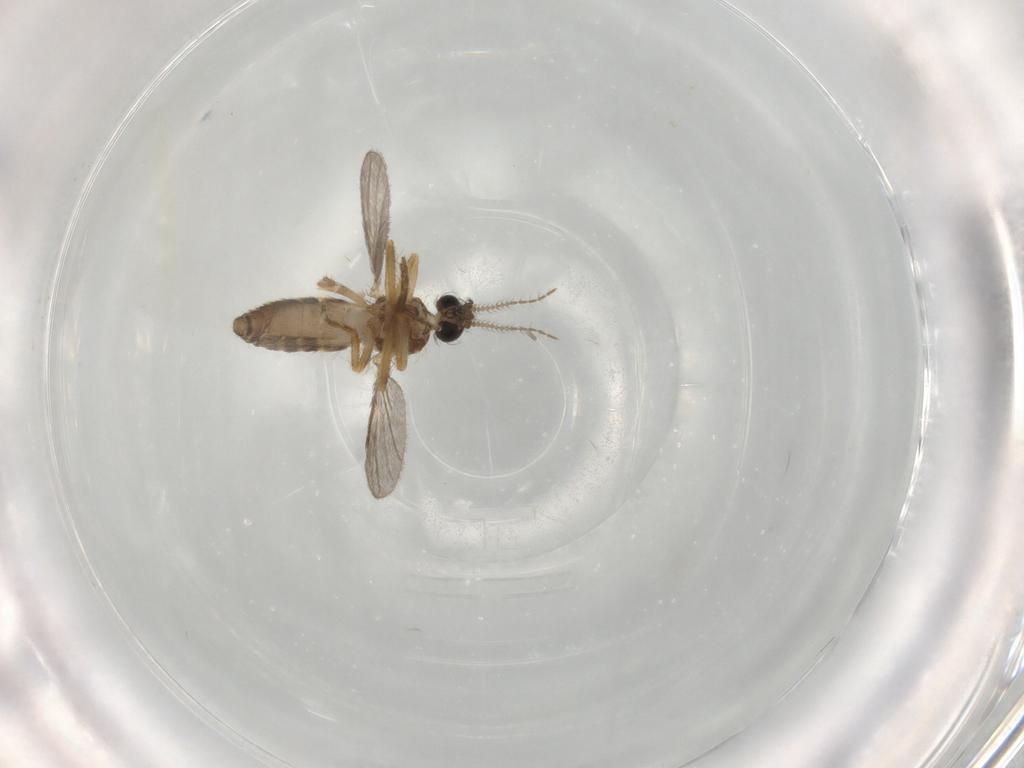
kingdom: Animalia
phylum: Arthropoda
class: Insecta
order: Diptera
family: Ceratopogonidae
